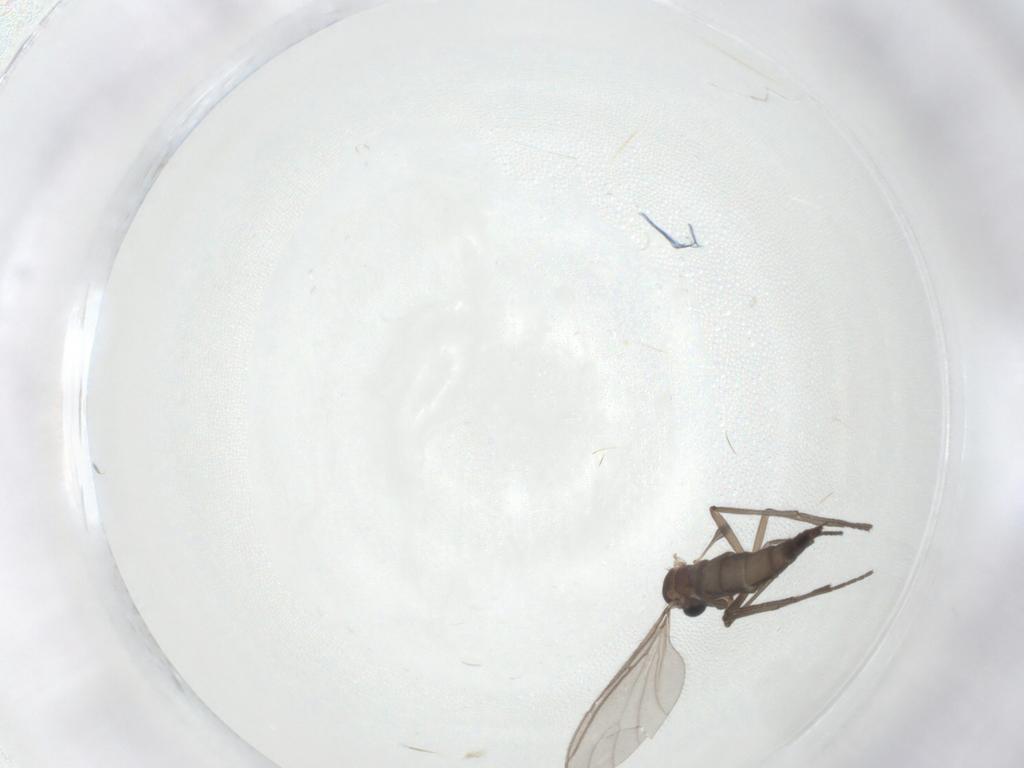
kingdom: Animalia
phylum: Arthropoda
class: Insecta
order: Diptera
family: Sciaridae
